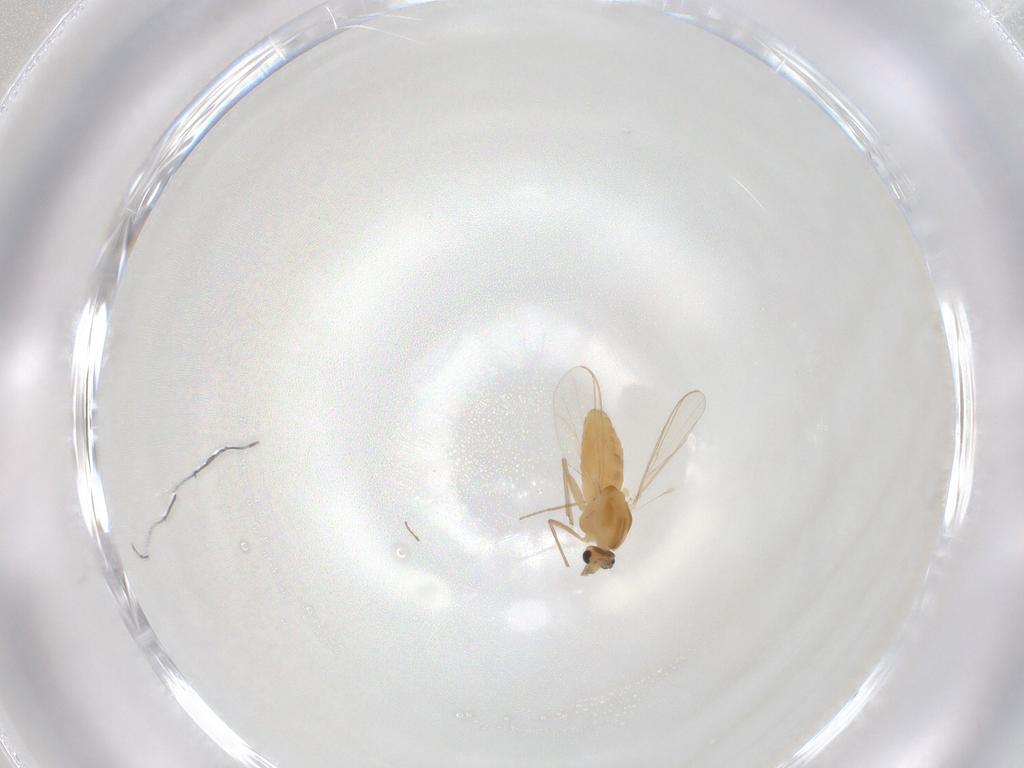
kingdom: Animalia
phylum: Arthropoda
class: Insecta
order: Diptera
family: Chironomidae
